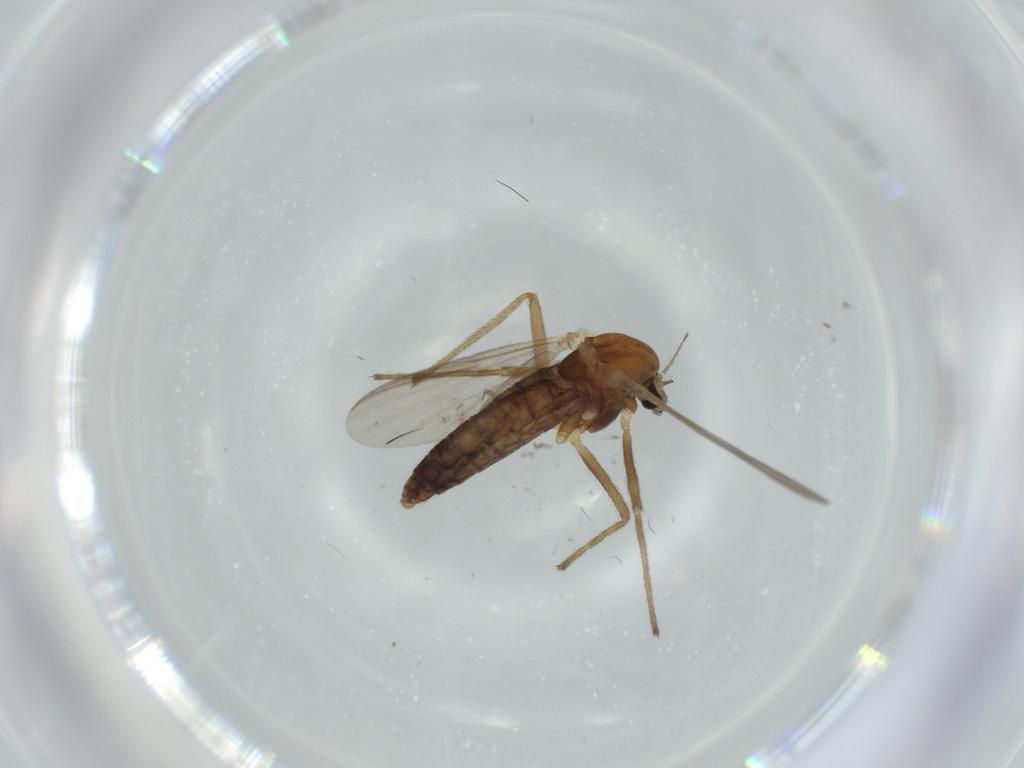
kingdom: Animalia
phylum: Arthropoda
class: Insecta
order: Diptera
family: Chironomidae
